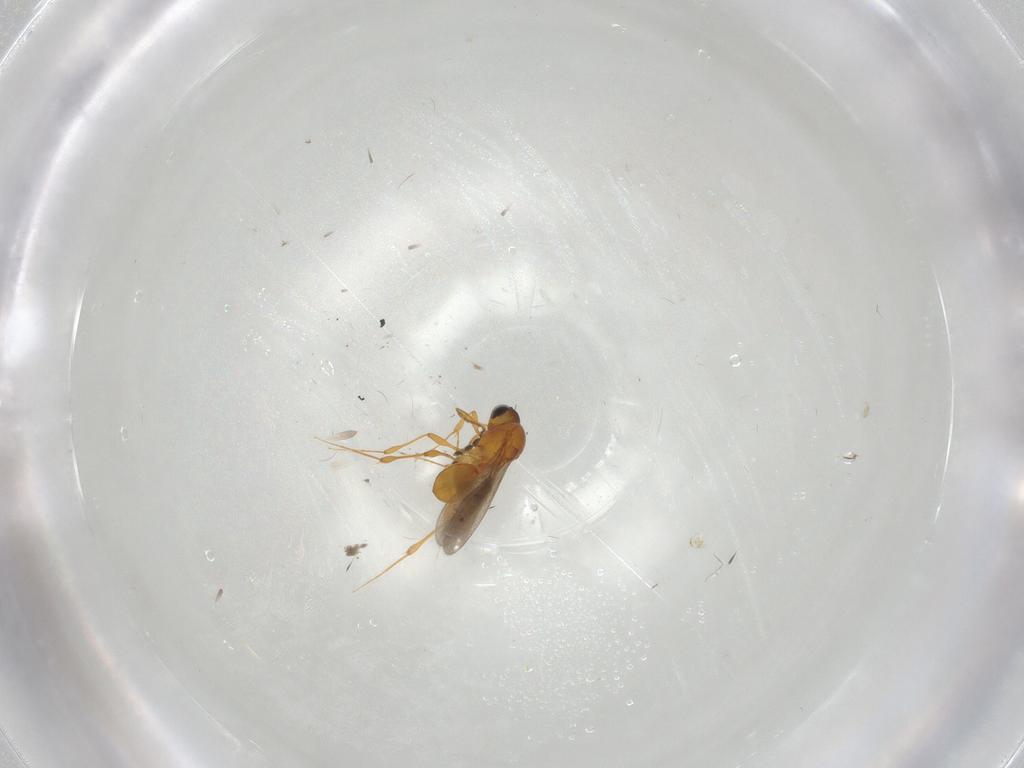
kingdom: Animalia
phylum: Arthropoda
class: Insecta
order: Hymenoptera
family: Platygastridae
